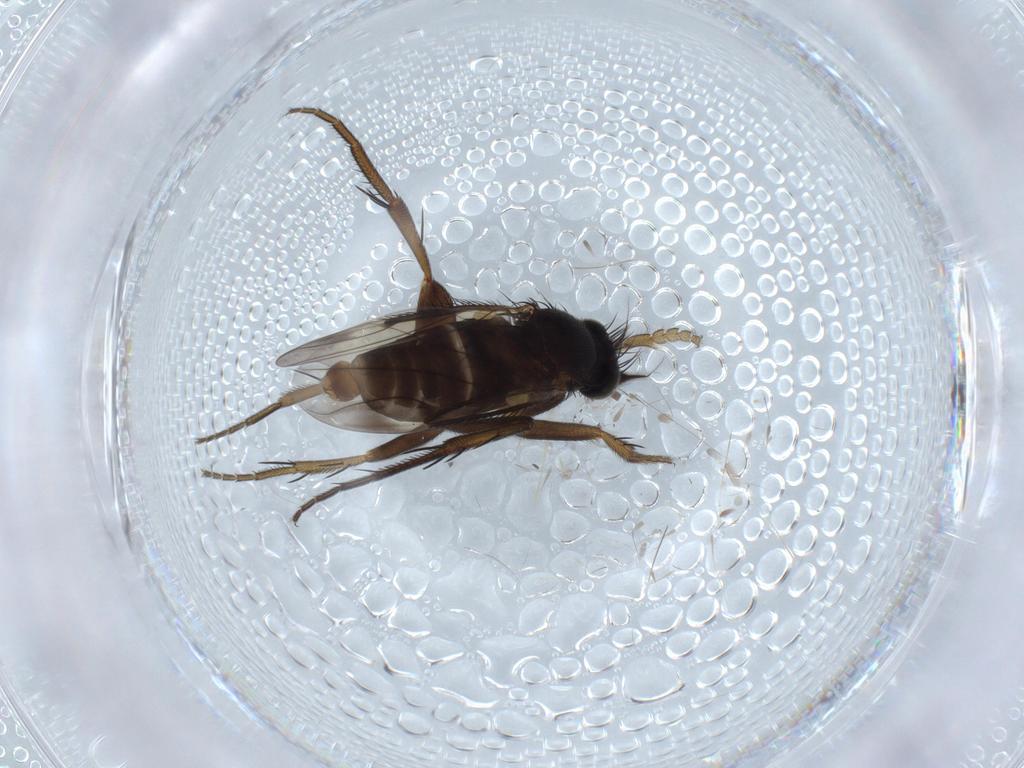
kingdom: Animalia
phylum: Arthropoda
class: Insecta
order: Diptera
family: Phoridae
